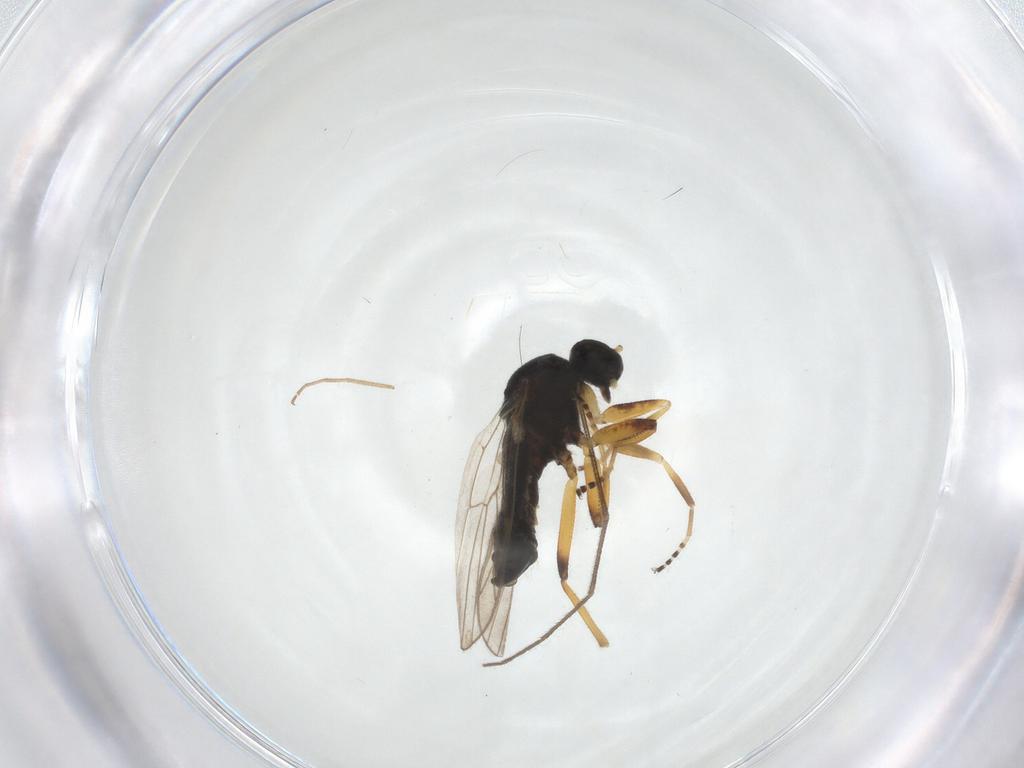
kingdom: Animalia
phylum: Arthropoda
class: Insecta
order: Diptera
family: Hybotidae
